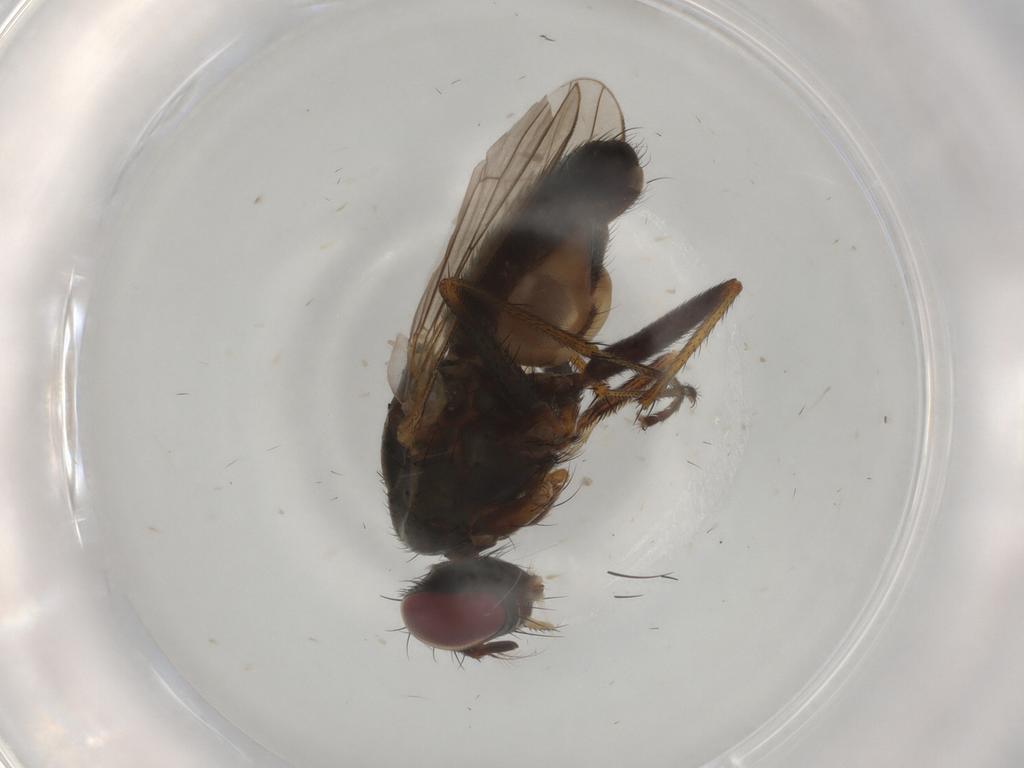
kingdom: Animalia
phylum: Arthropoda
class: Insecta
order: Diptera
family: Muscidae
